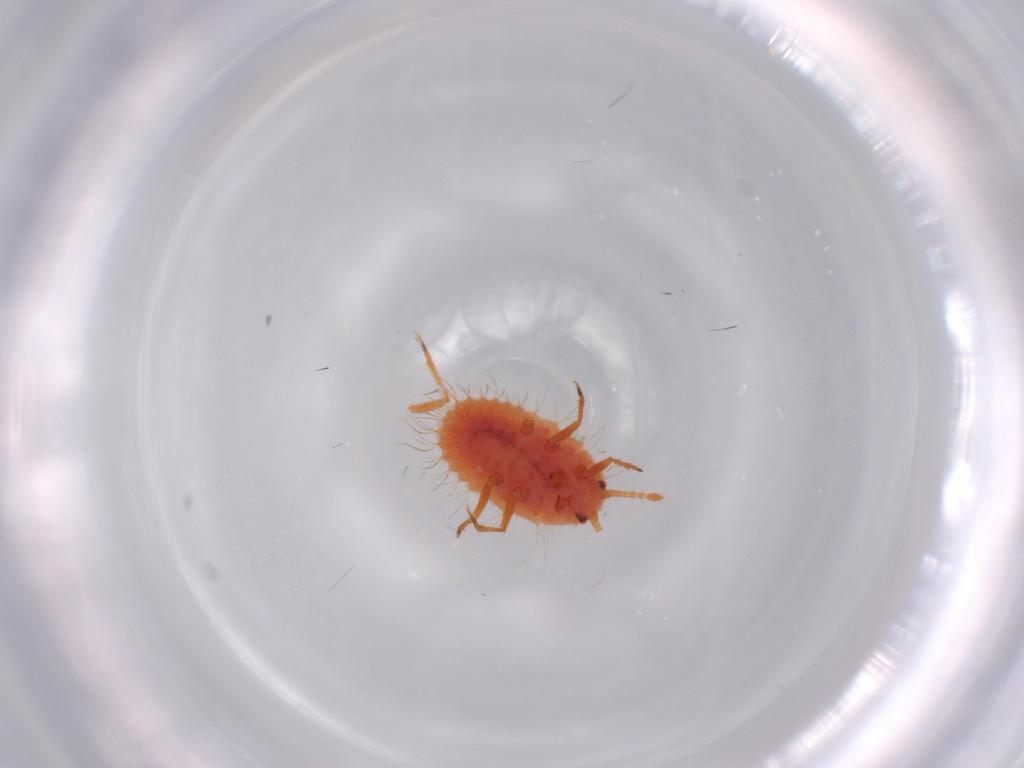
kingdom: Animalia
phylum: Arthropoda
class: Insecta
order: Hemiptera
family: Coccoidea_incertae_sedis
